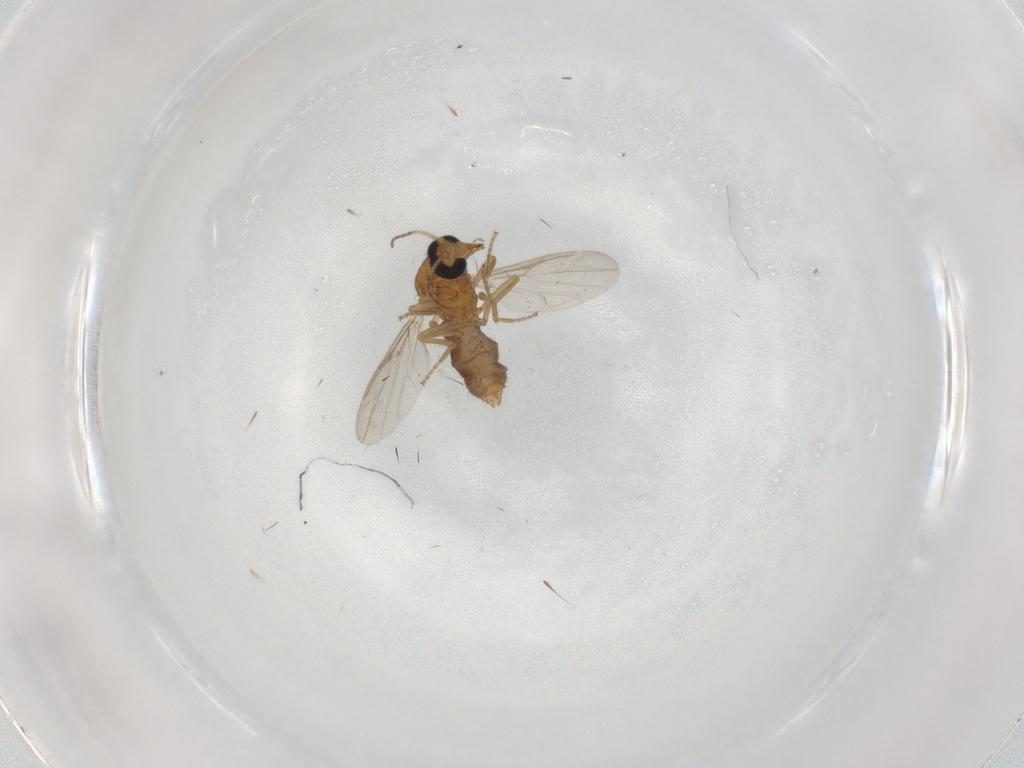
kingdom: Animalia
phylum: Arthropoda
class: Insecta
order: Diptera
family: Ceratopogonidae
